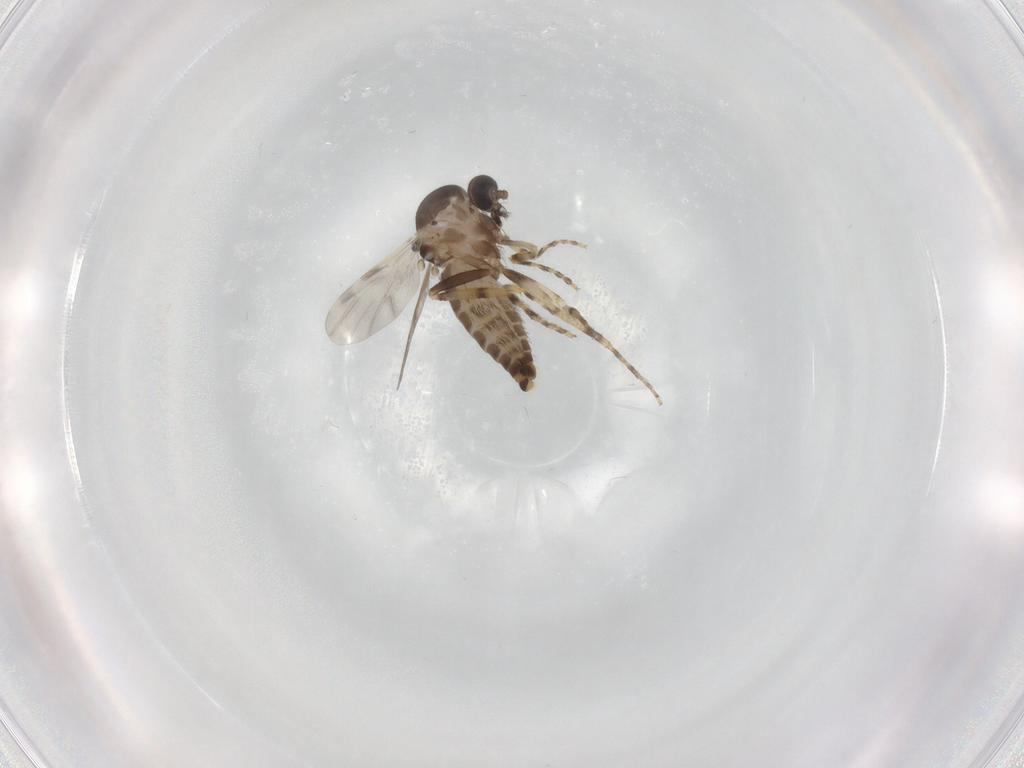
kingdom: Animalia
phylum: Arthropoda
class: Insecta
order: Diptera
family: Ceratopogonidae
